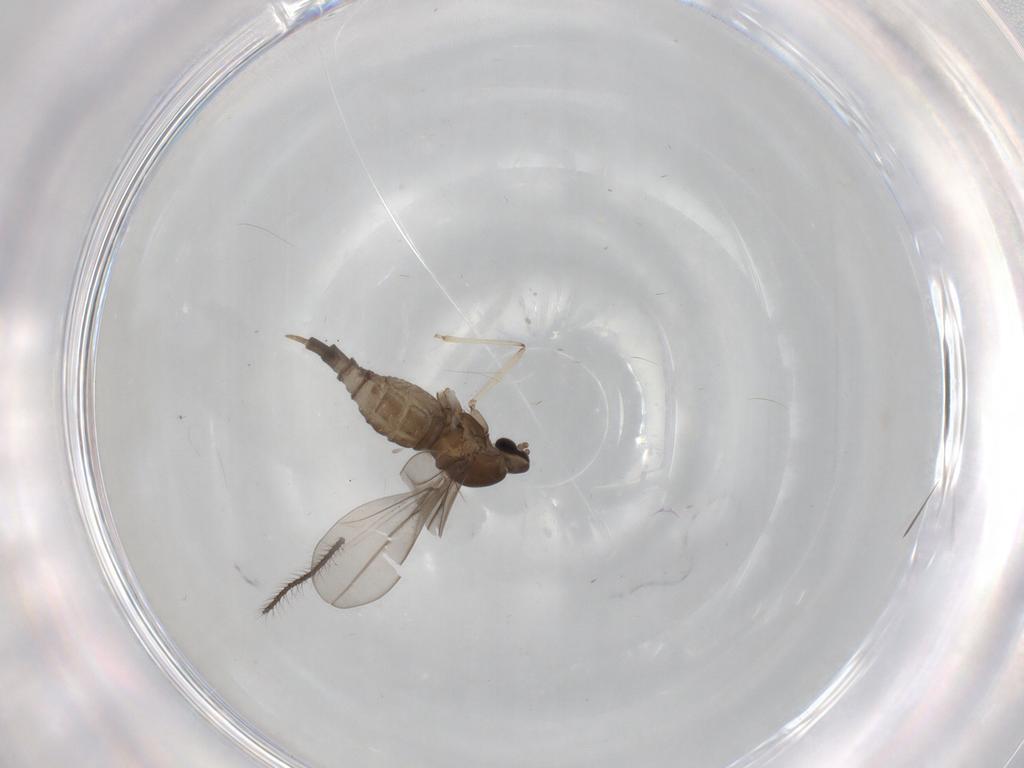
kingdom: Animalia
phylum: Arthropoda
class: Insecta
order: Diptera
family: Cecidomyiidae
